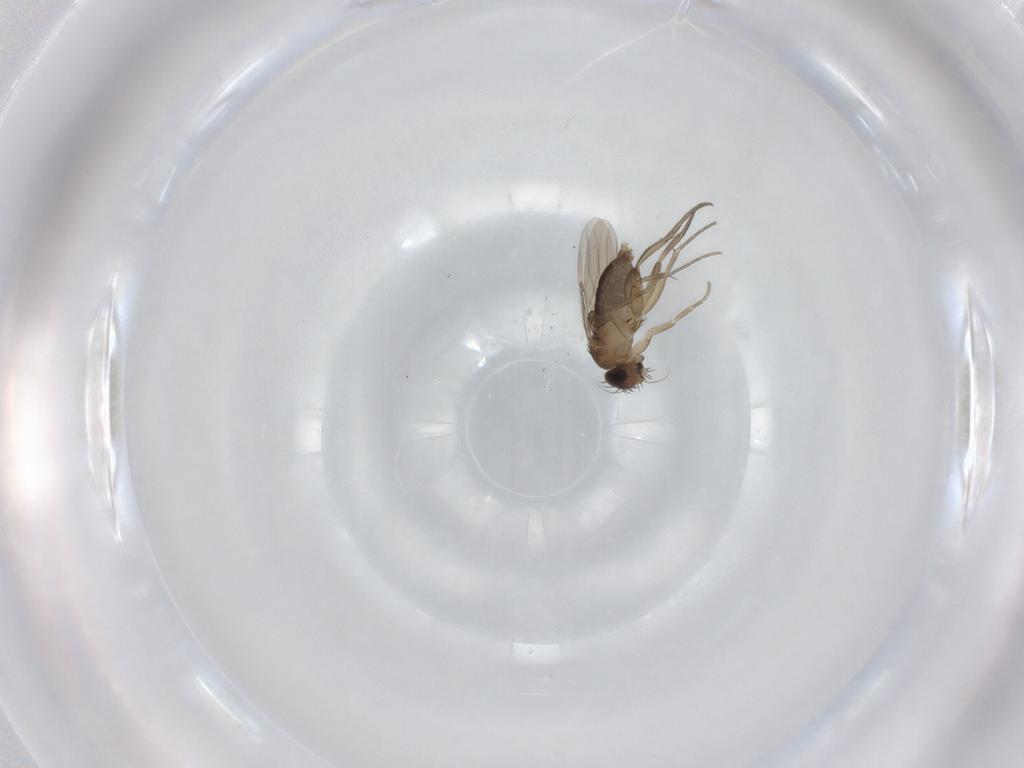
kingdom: Animalia
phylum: Arthropoda
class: Insecta
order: Diptera
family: Phoridae
